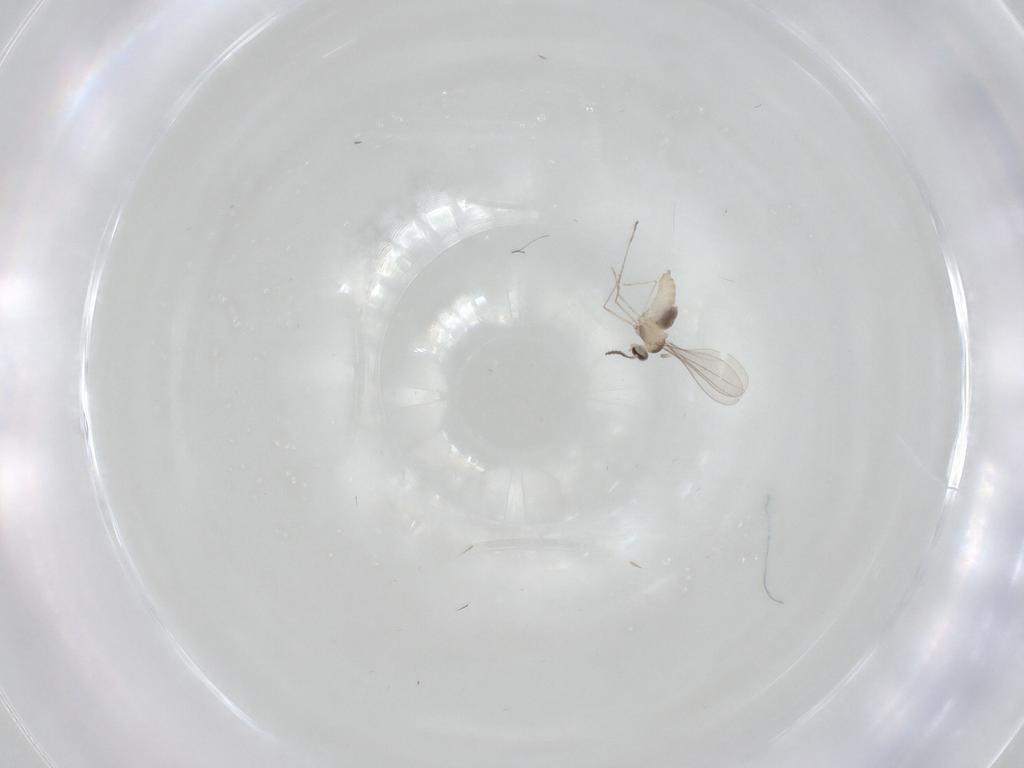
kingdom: Animalia
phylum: Arthropoda
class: Insecta
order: Diptera
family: Cecidomyiidae
